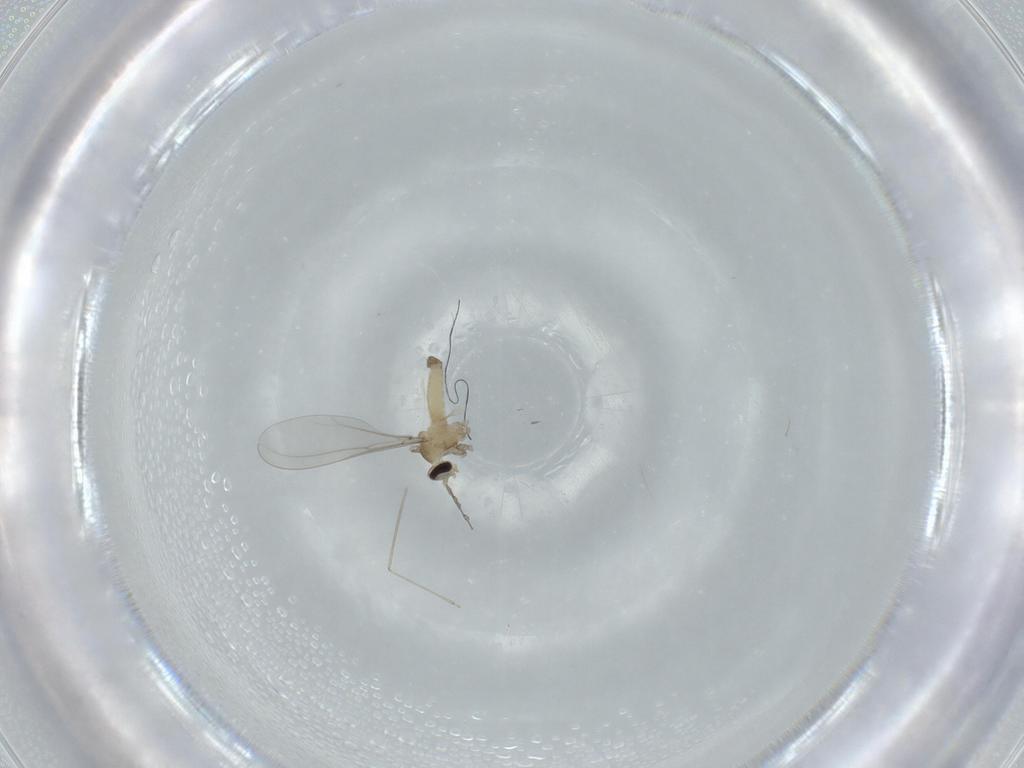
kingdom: Animalia
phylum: Arthropoda
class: Insecta
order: Diptera
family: Cecidomyiidae
